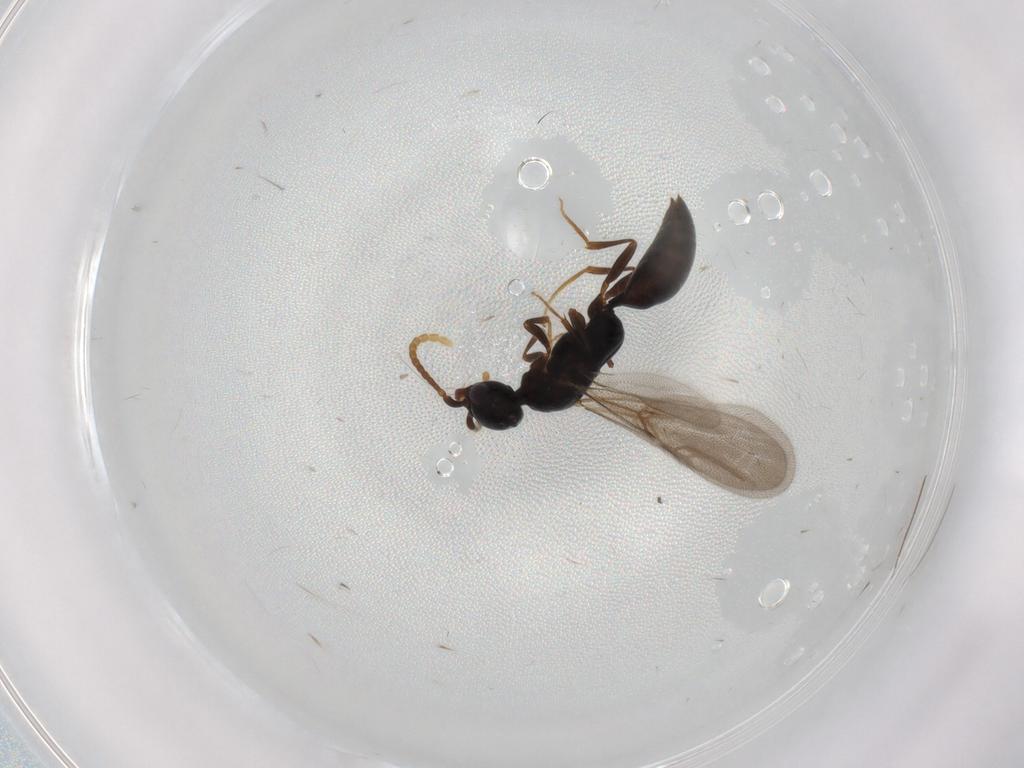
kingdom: Animalia
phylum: Arthropoda
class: Insecta
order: Hymenoptera
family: Bethylidae
